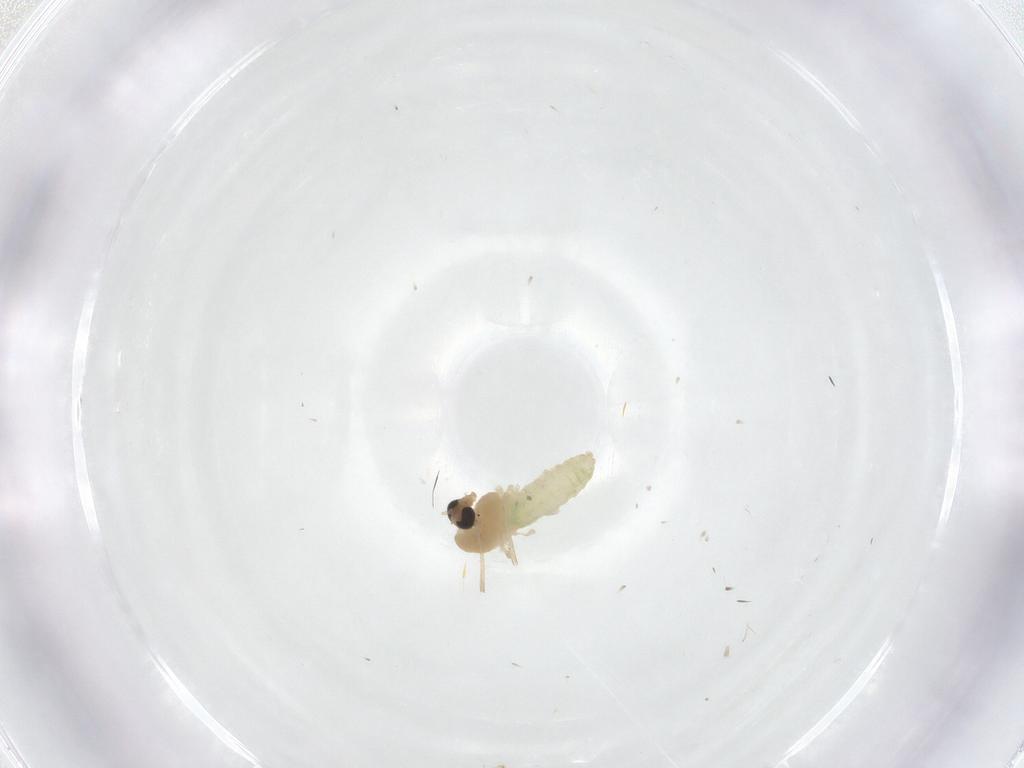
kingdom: Animalia
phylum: Arthropoda
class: Insecta
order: Diptera
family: Chironomidae
